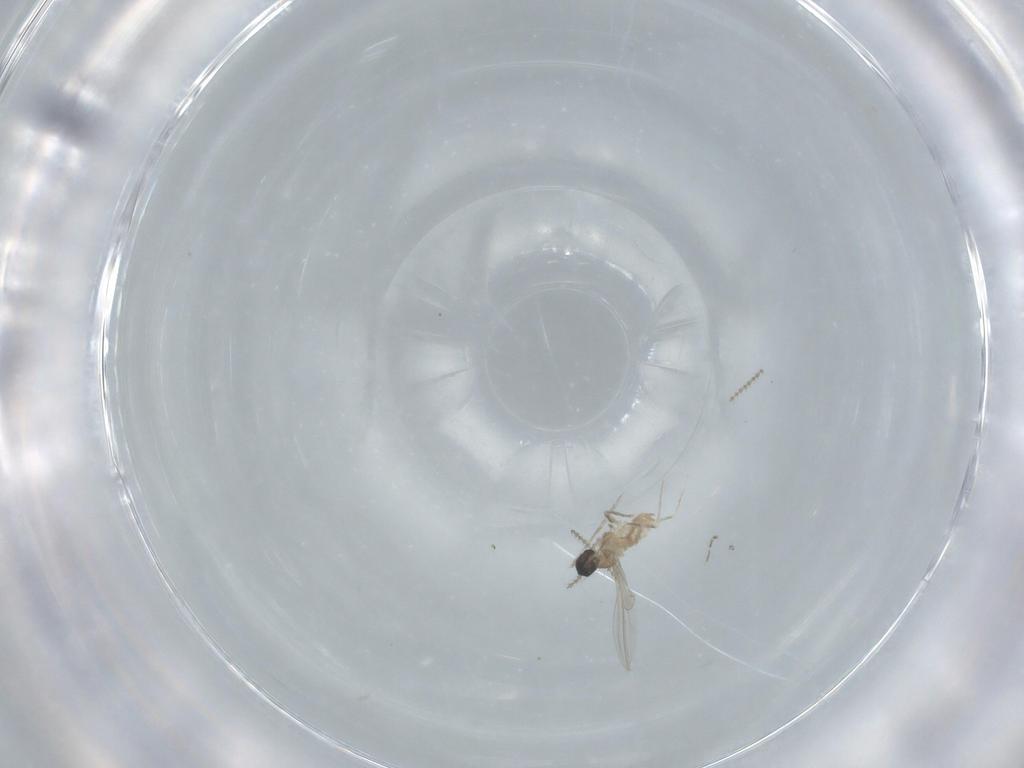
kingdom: Animalia
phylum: Arthropoda
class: Insecta
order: Diptera
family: Cecidomyiidae
